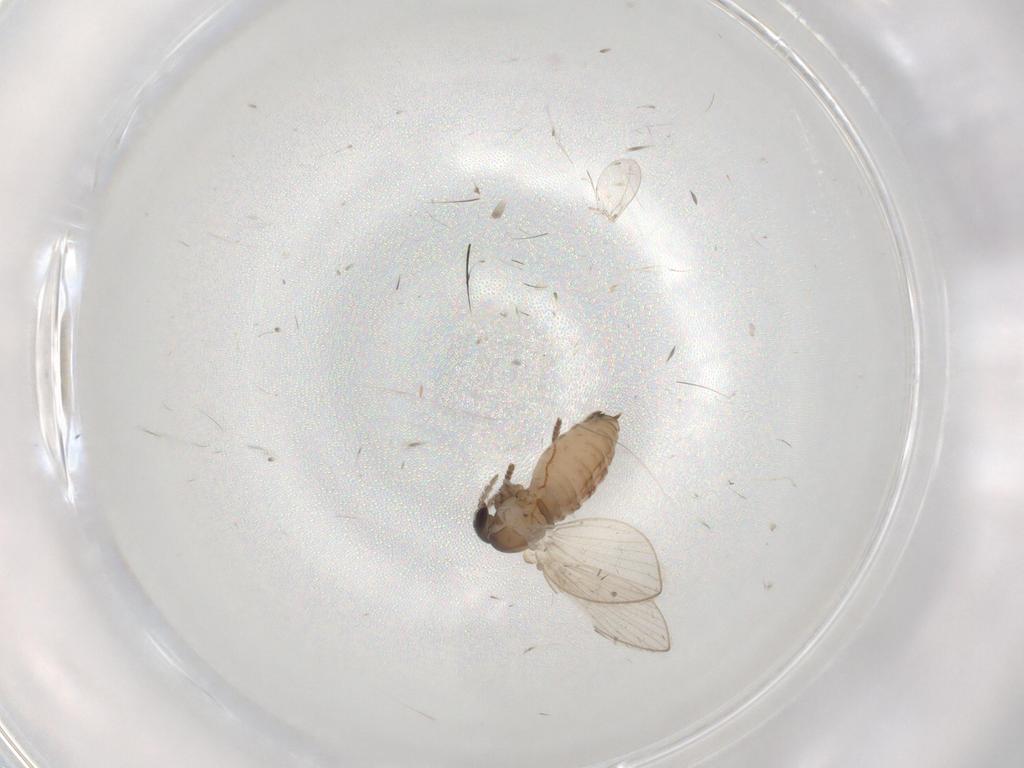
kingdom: Animalia
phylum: Arthropoda
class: Insecta
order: Diptera
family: Psychodidae
